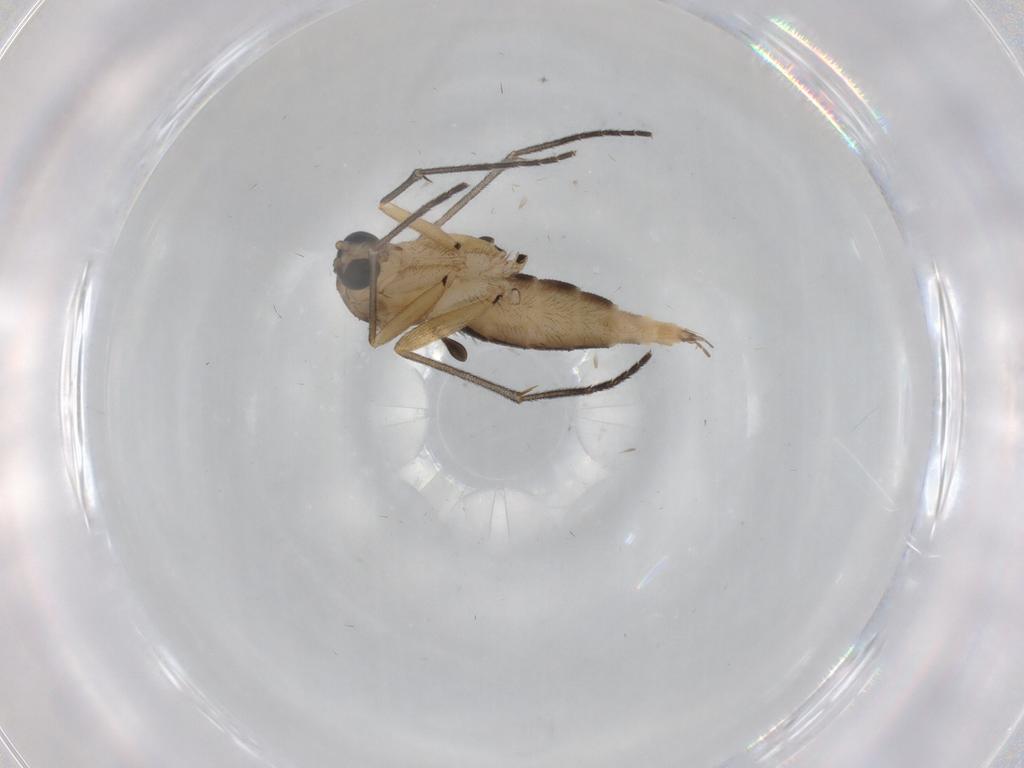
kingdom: Animalia
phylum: Arthropoda
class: Insecta
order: Diptera
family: Sciaridae
